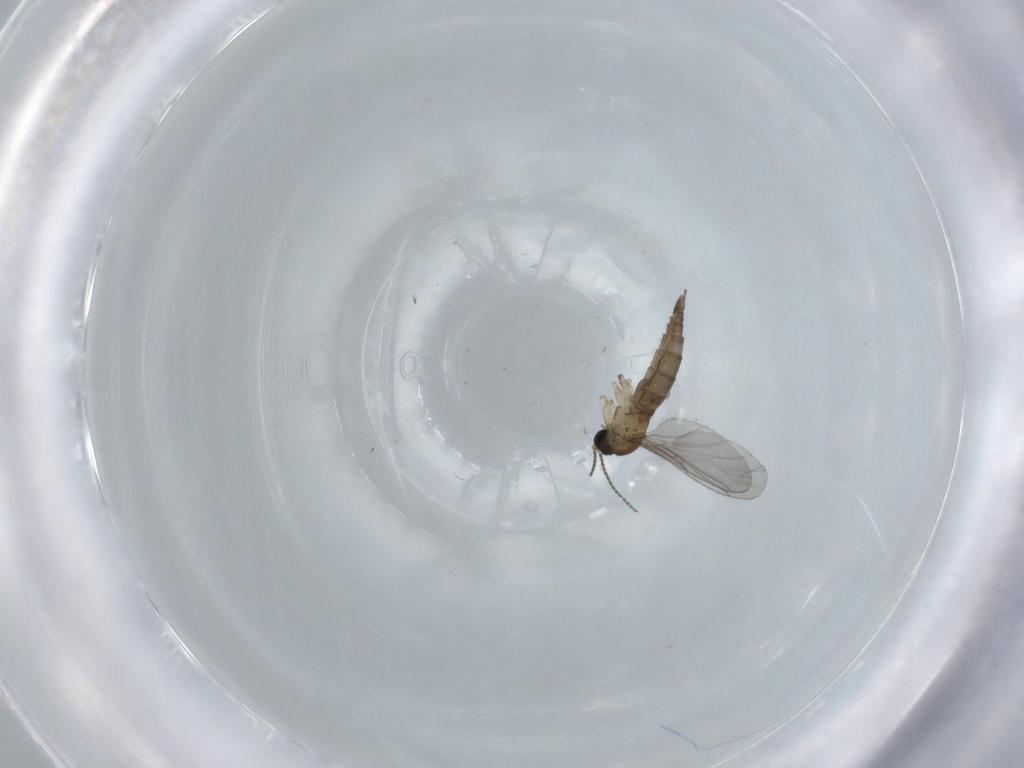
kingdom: Animalia
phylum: Arthropoda
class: Insecta
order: Diptera
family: Sciaridae
